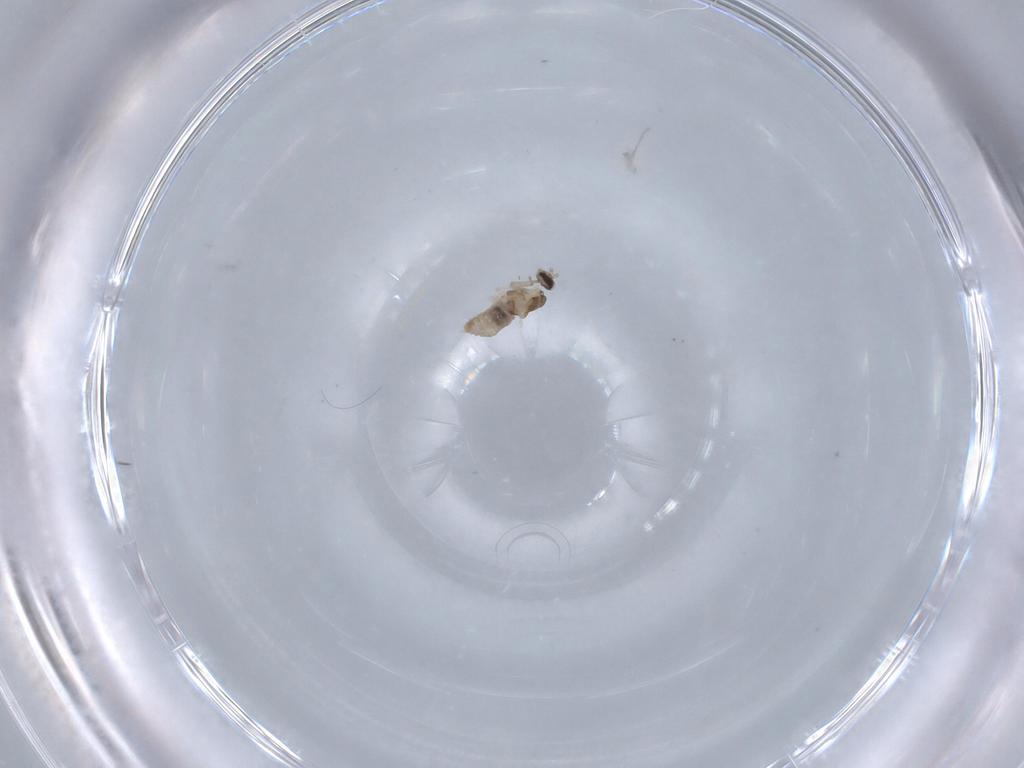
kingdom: Animalia
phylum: Arthropoda
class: Insecta
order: Diptera
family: Cecidomyiidae
